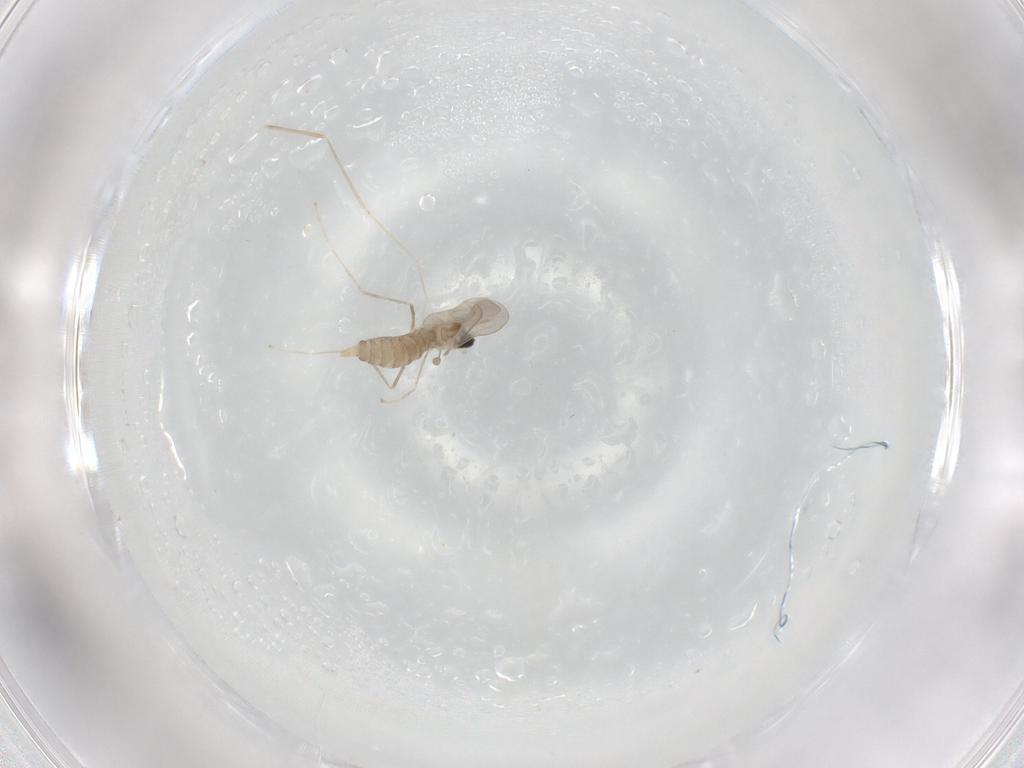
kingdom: Animalia
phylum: Arthropoda
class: Insecta
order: Diptera
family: Cecidomyiidae
